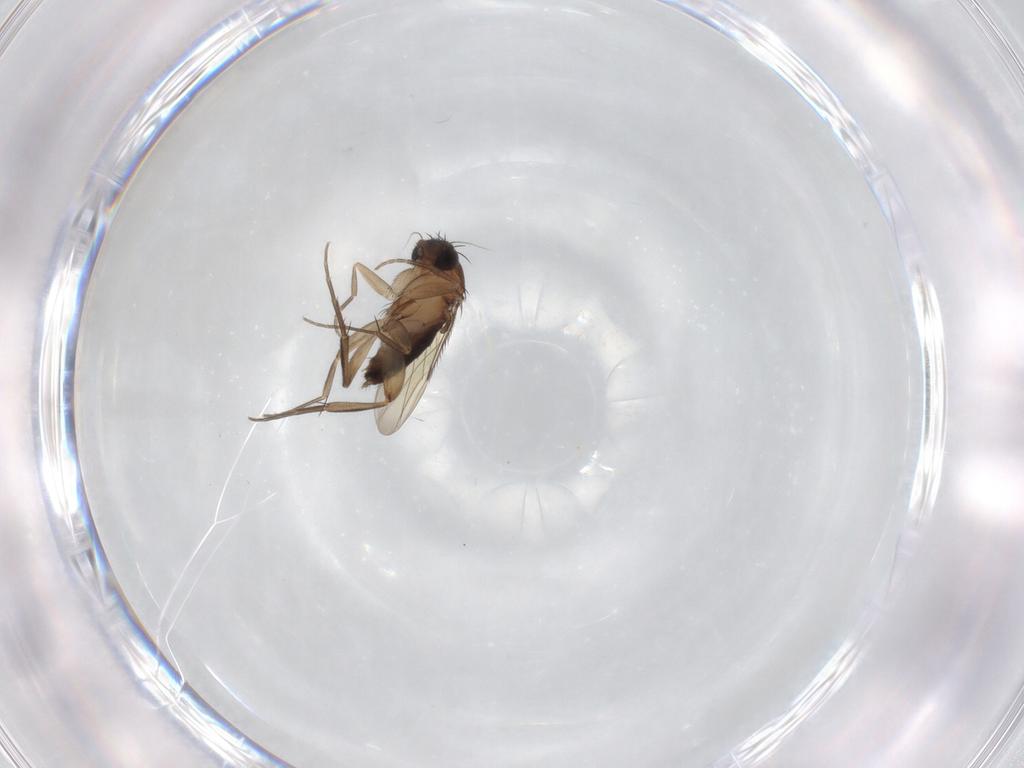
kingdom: Animalia
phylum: Arthropoda
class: Insecta
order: Diptera
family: Phoridae
